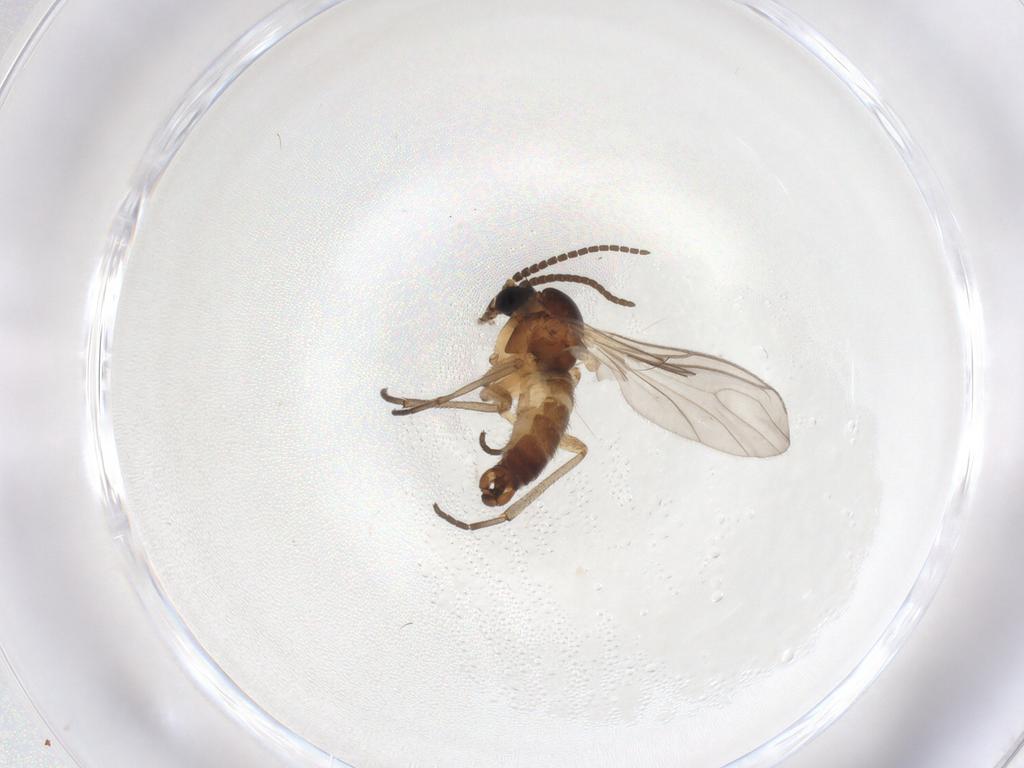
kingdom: Animalia
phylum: Arthropoda
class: Insecta
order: Diptera
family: Sciaridae
